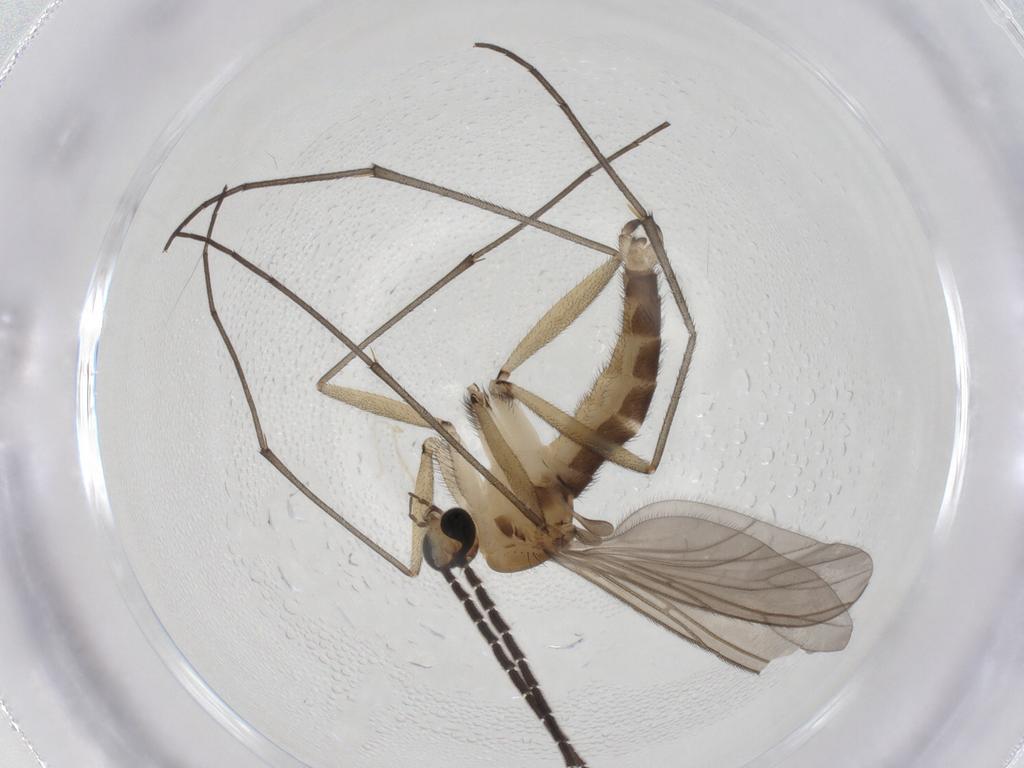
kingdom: Animalia
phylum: Arthropoda
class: Insecta
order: Diptera
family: Sciaridae
